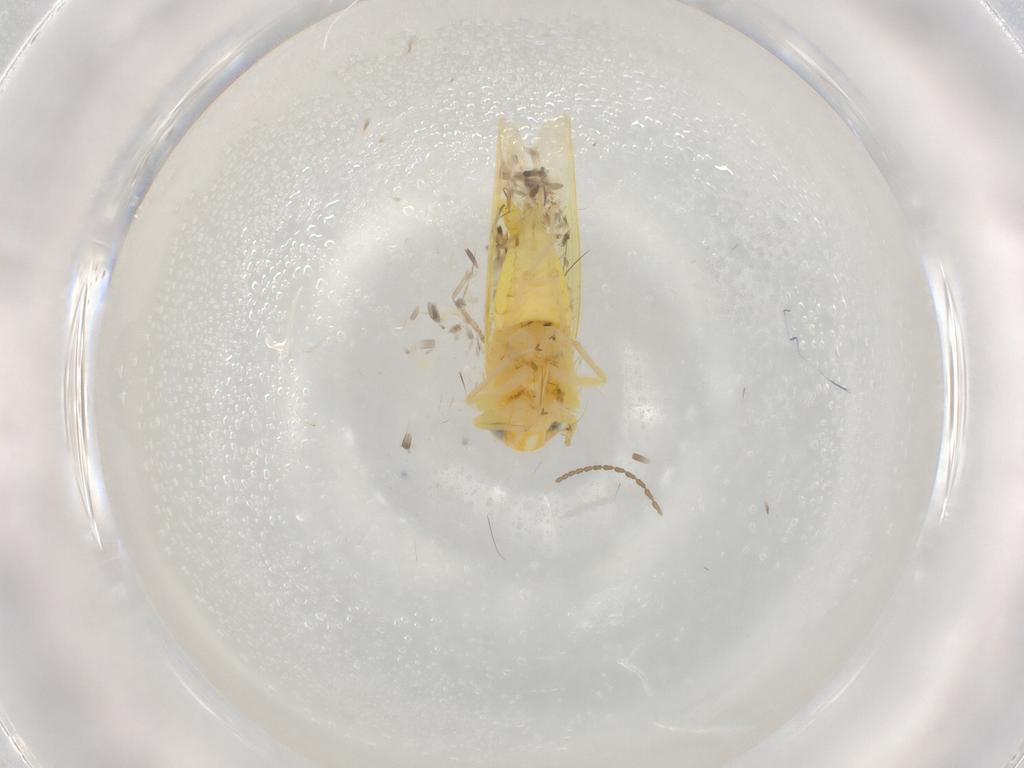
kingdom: Animalia
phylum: Arthropoda
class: Insecta
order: Hemiptera
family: Cicadellidae
